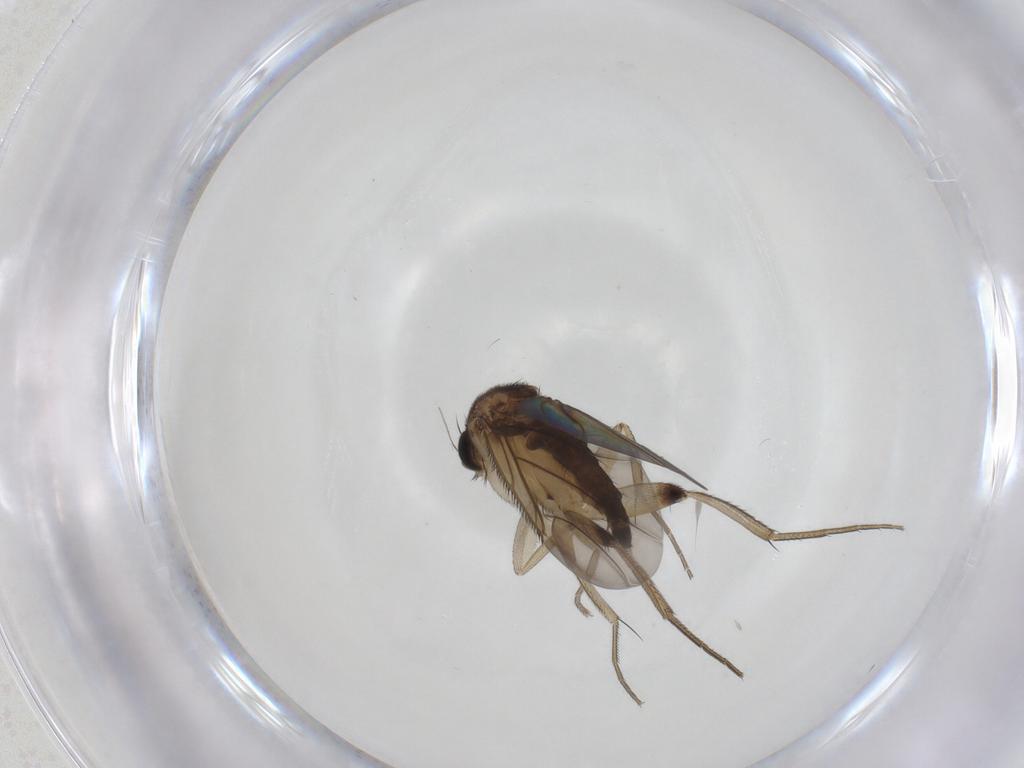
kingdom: Animalia
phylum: Arthropoda
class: Insecta
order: Diptera
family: Phoridae
